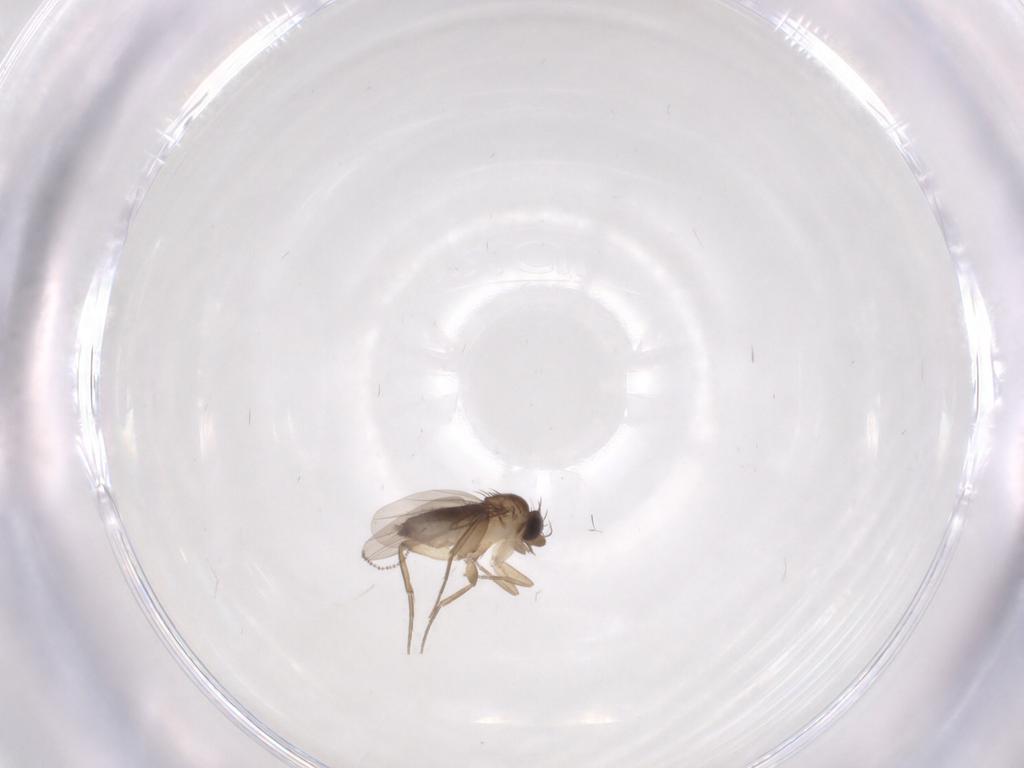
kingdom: Animalia
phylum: Arthropoda
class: Insecta
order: Diptera
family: Phoridae
